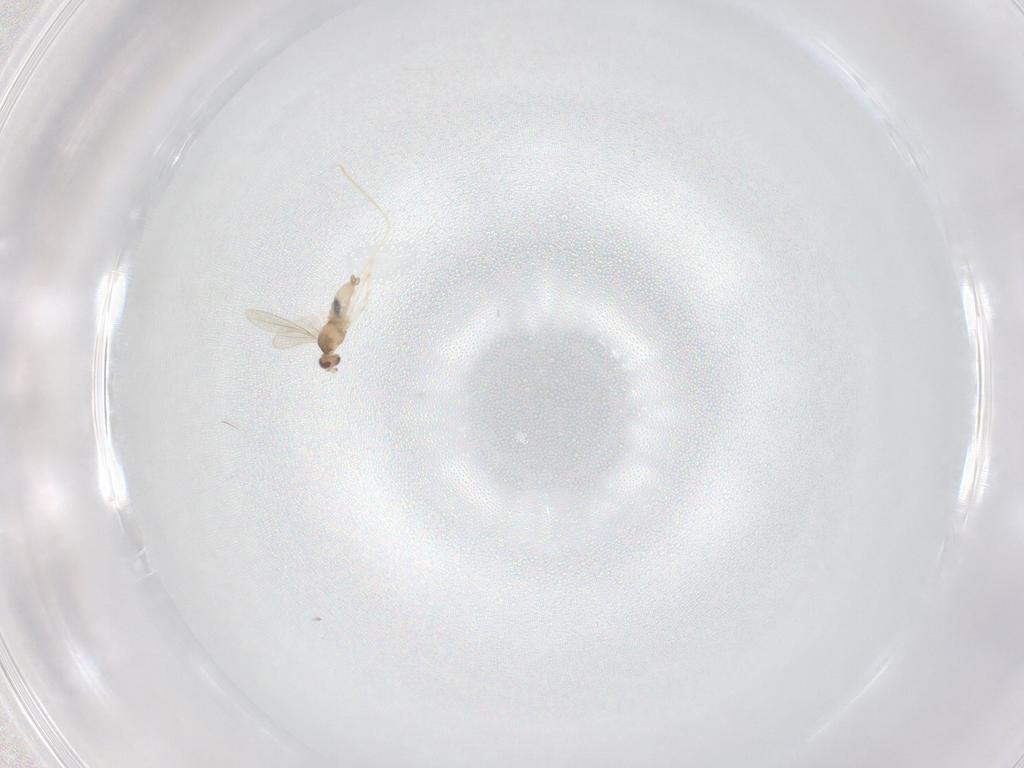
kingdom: Animalia
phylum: Arthropoda
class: Insecta
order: Diptera
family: Cecidomyiidae
